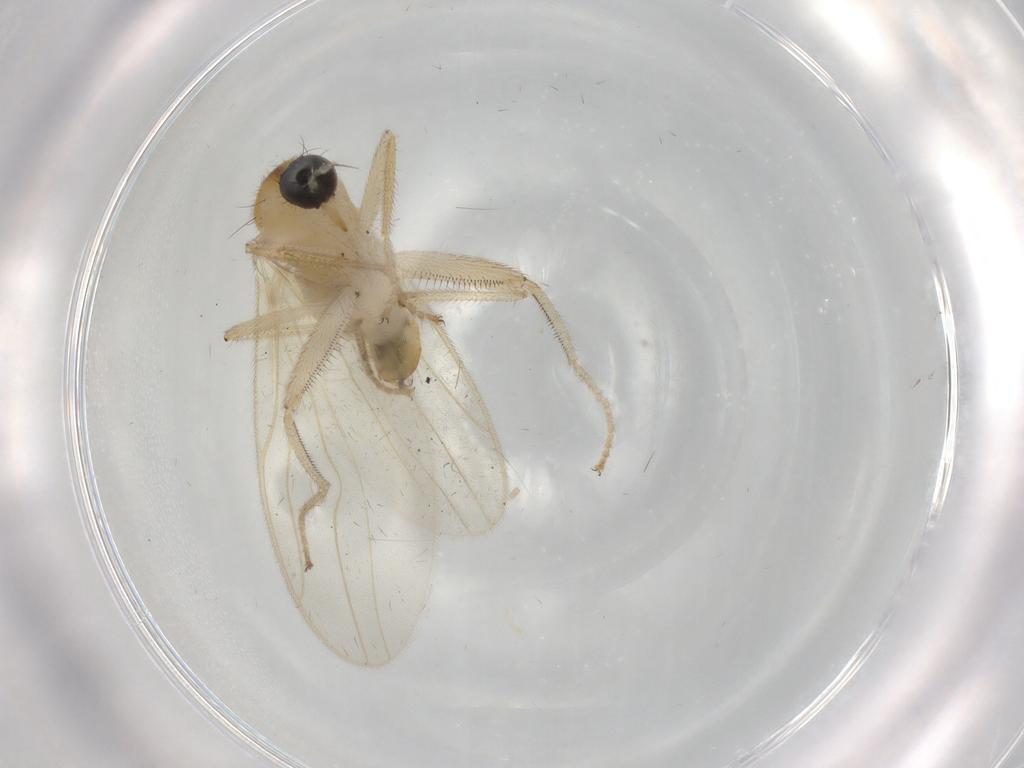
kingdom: Animalia
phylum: Arthropoda
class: Insecta
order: Diptera
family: Hybotidae
